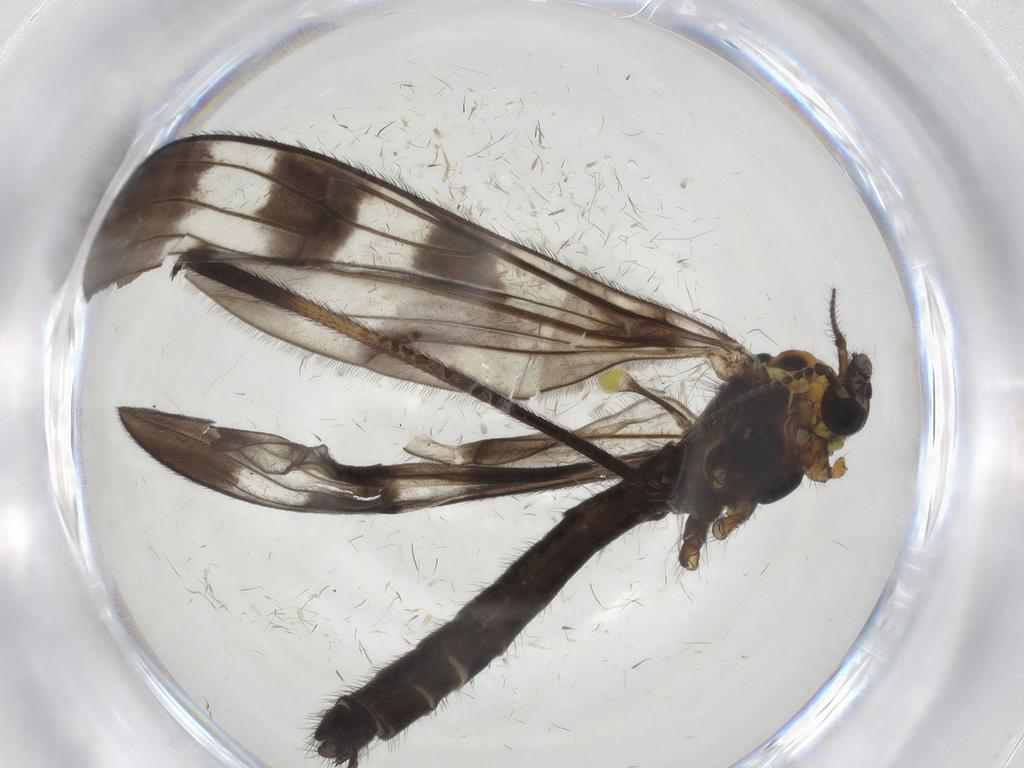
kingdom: Animalia
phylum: Arthropoda
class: Insecta
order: Diptera
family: Limoniidae
